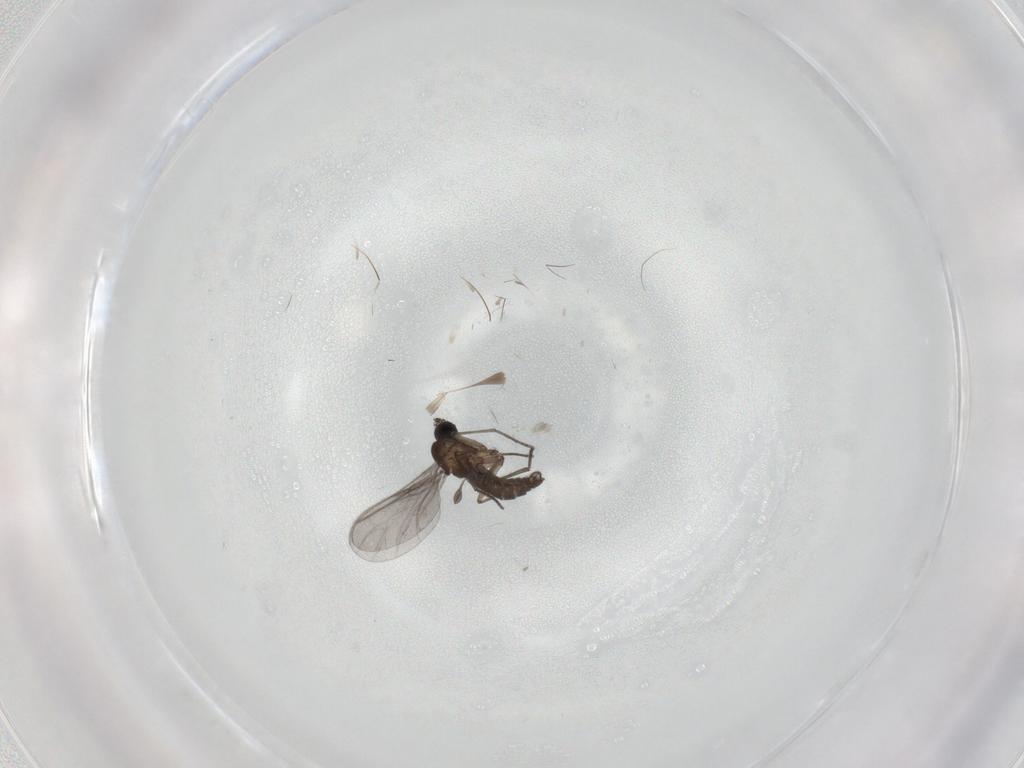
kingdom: Animalia
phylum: Arthropoda
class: Insecta
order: Diptera
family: Sciaridae
